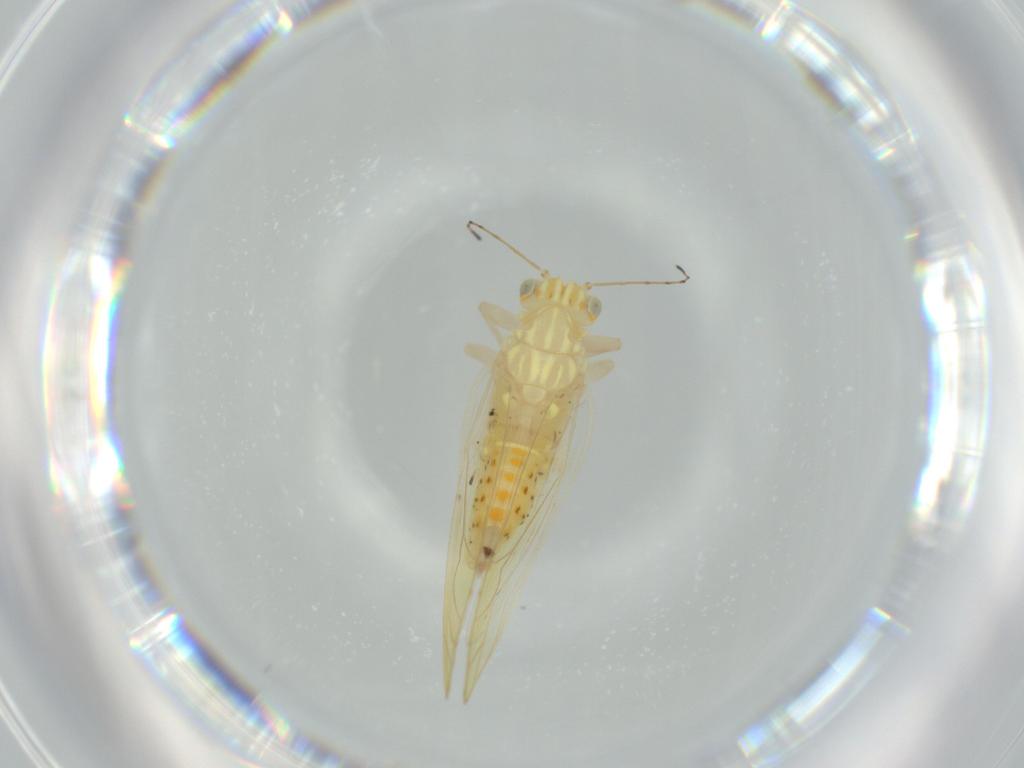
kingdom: Animalia
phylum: Arthropoda
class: Insecta
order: Hemiptera
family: Triozidae
